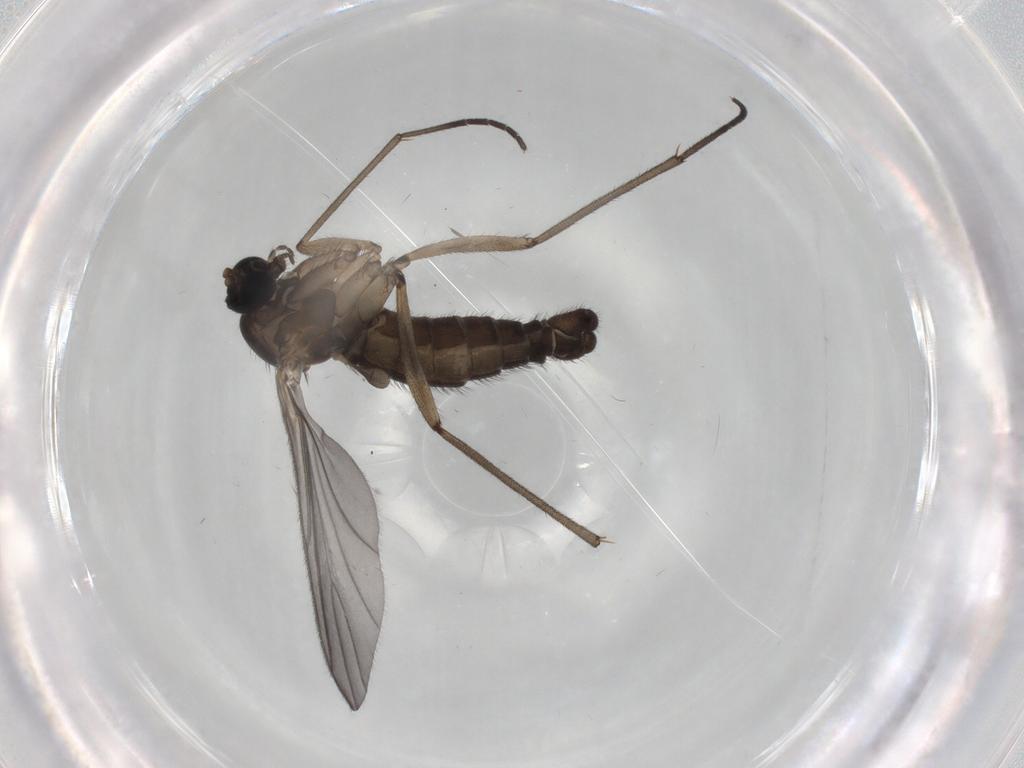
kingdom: Animalia
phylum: Arthropoda
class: Insecta
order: Diptera
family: Sciaridae
